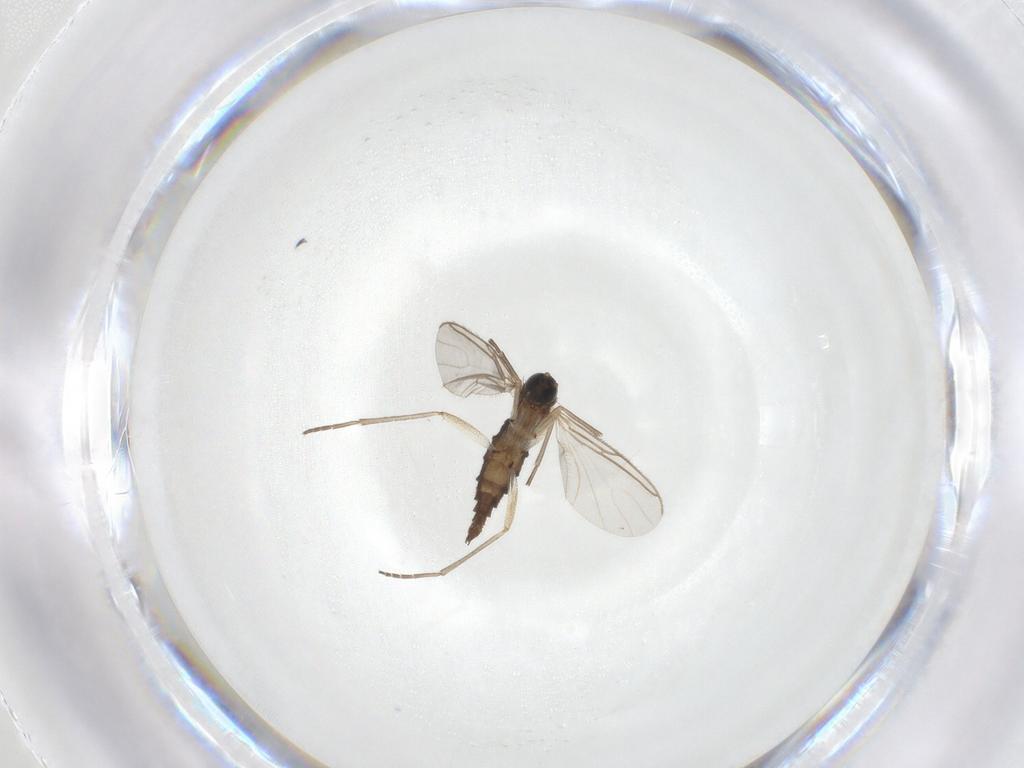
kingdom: Animalia
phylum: Arthropoda
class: Insecta
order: Diptera
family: Sciaridae
